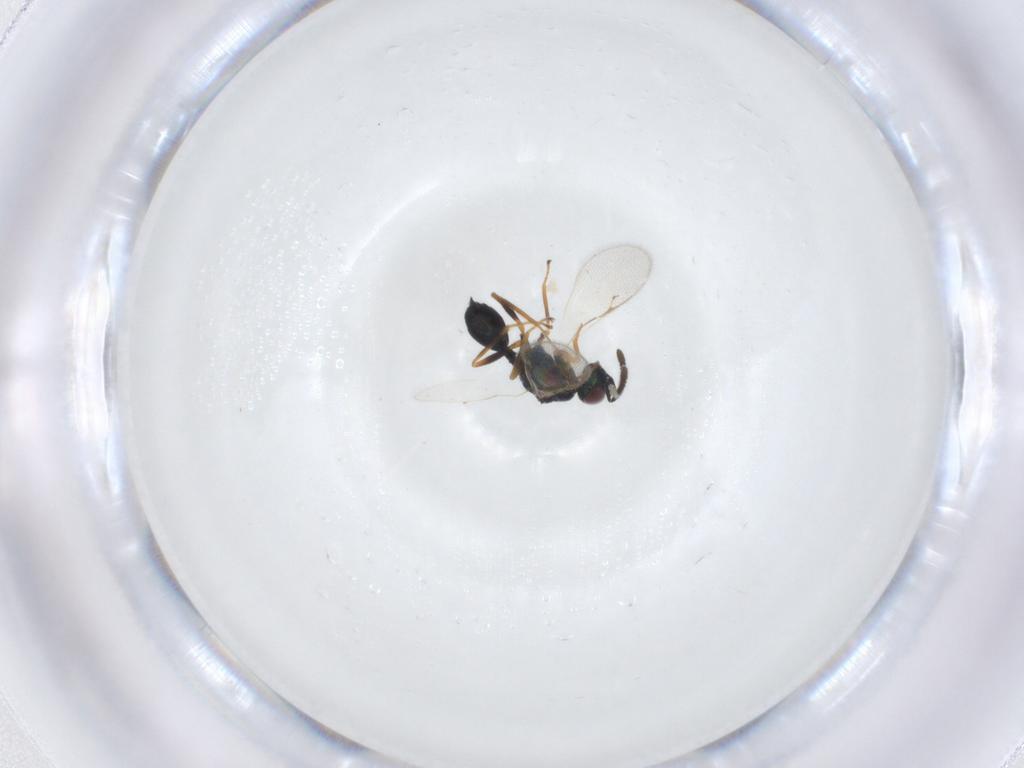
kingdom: Animalia
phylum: Arthropoda
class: Insecta
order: Hymenoptera
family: Chalcidoidea_incertae_sedis
